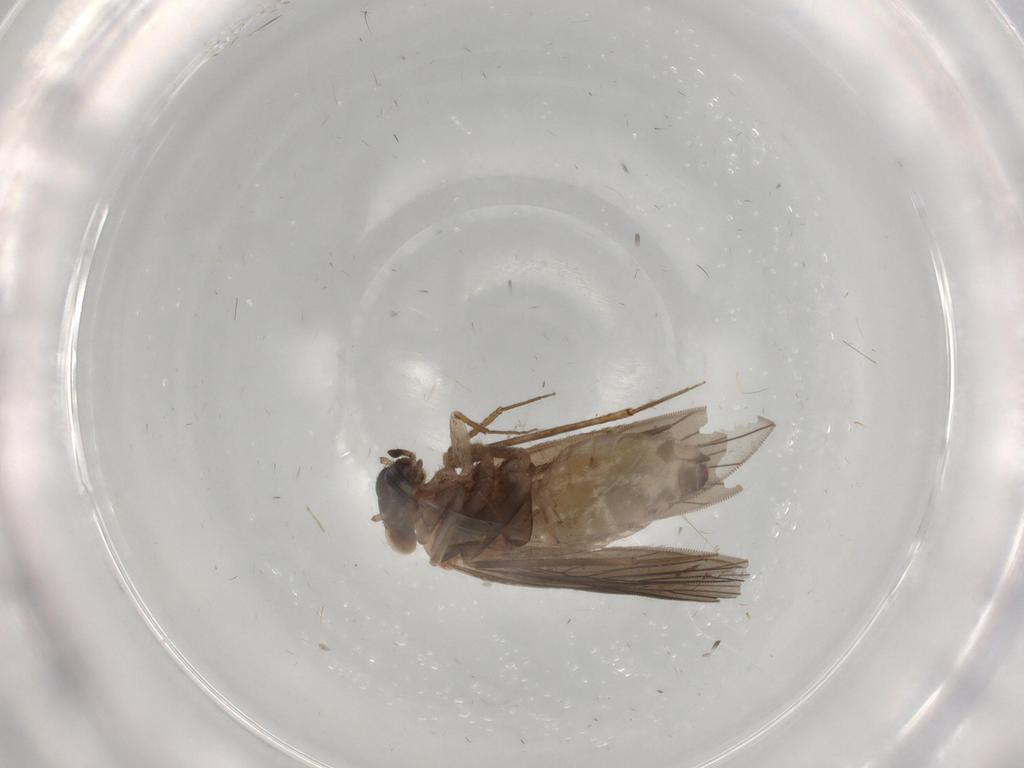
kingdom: Animalia
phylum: Arthropoda
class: Insecta
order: Psocodea
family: Lepidopsocidae
